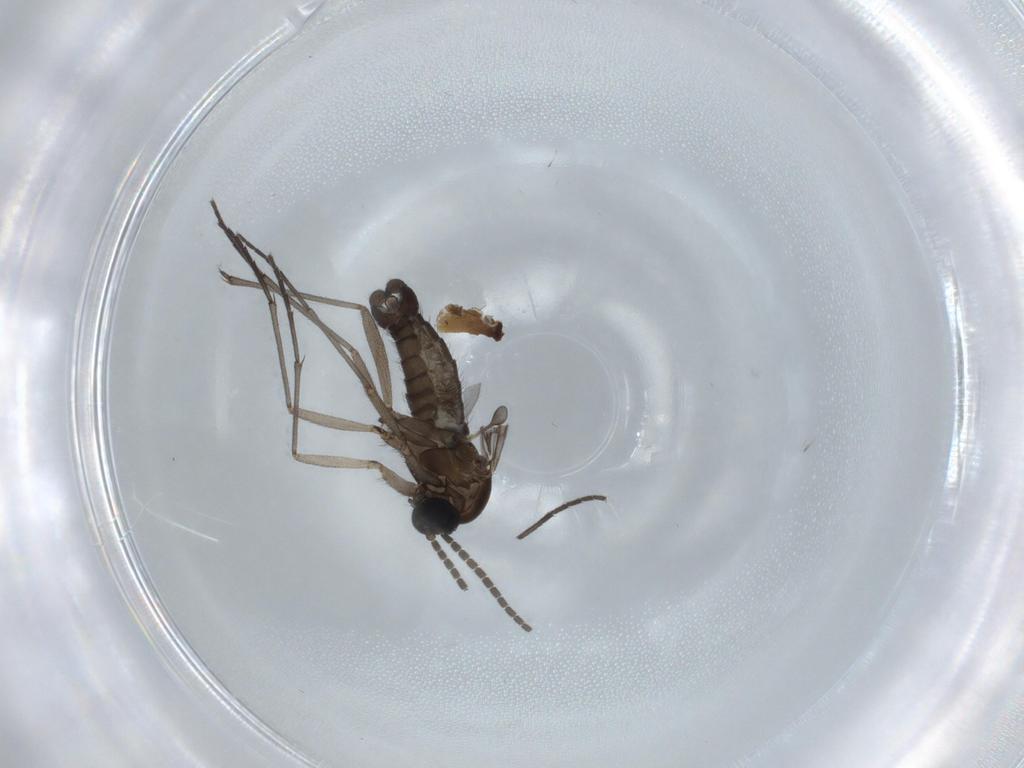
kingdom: Animalia
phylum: Arthropoda
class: Insecta
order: Diptera
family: Sciaridae
